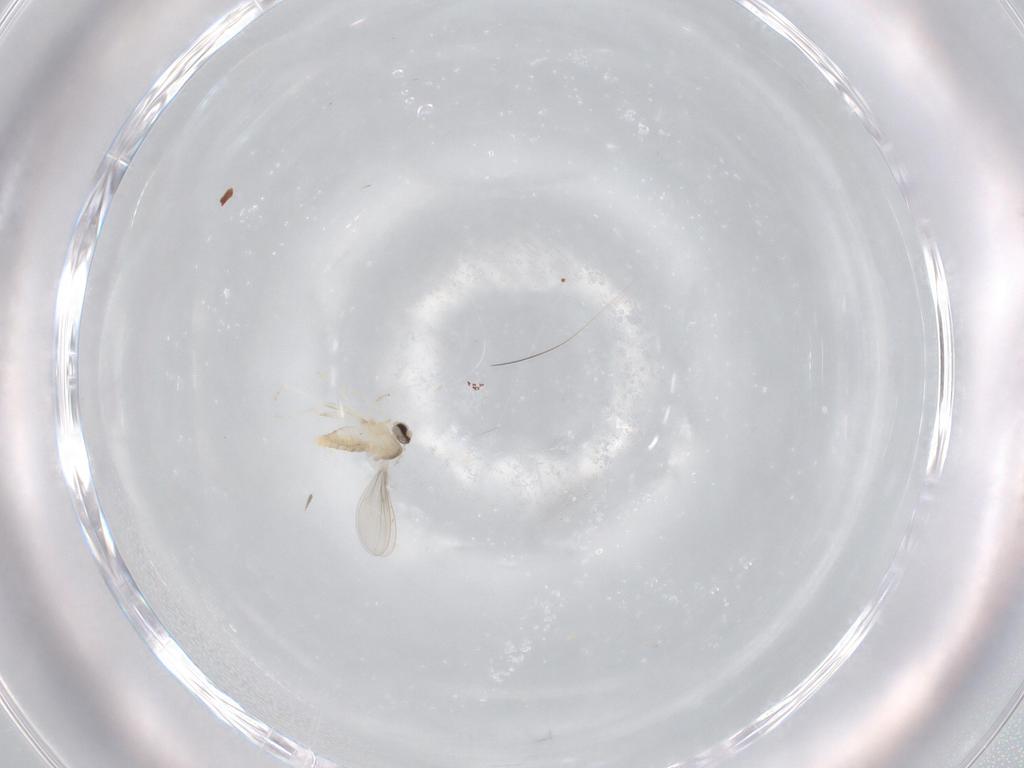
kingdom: Animalia
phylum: Arthropoda
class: Insecta
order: Diptera
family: Cecidomyiidae
